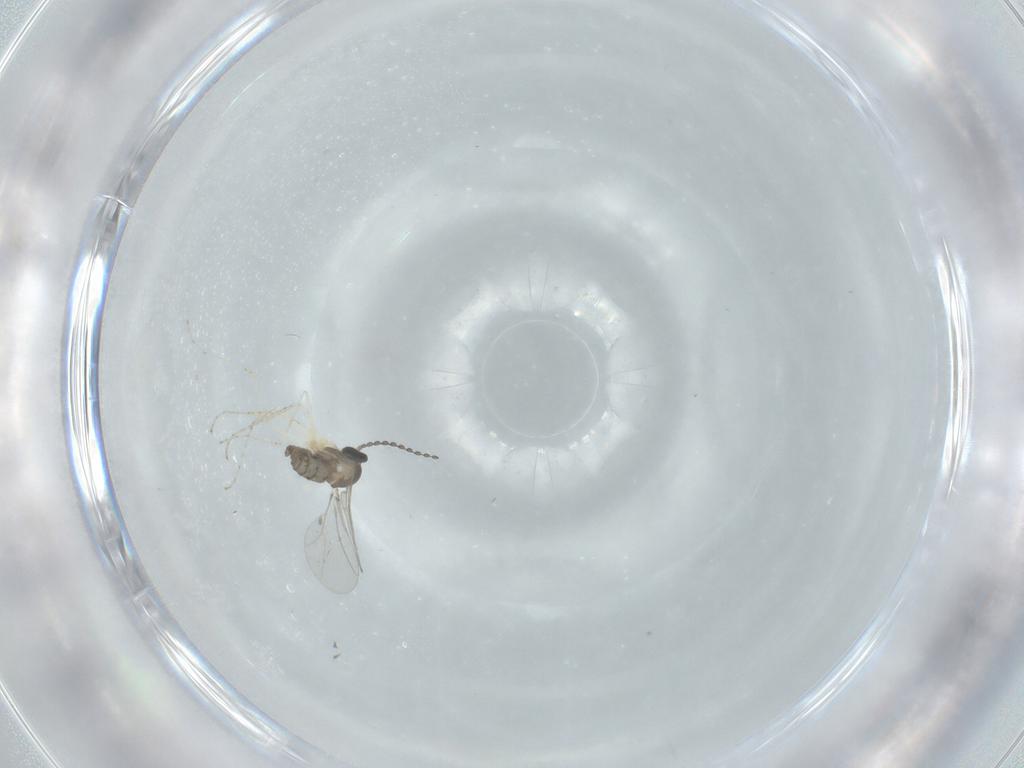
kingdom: Animalia
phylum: Arthropoda
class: Insecta
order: Diptera
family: Cecidomyiidae
